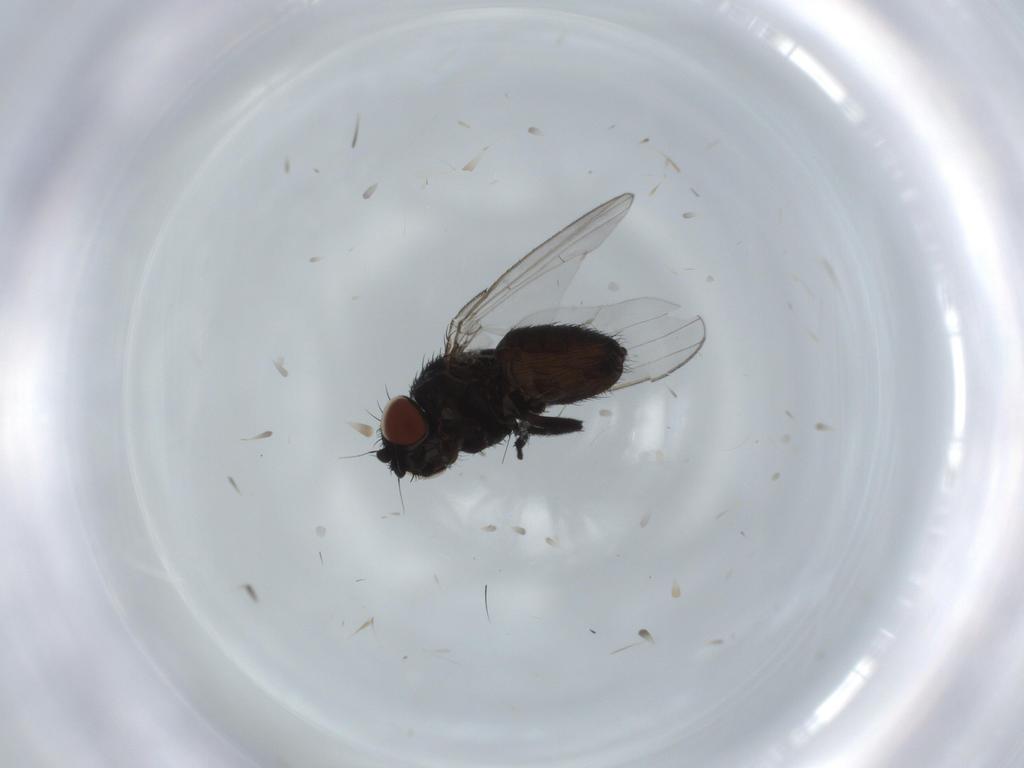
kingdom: Animalia
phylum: Arthropoda
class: Insecta
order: Diptera
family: Milichiidae
